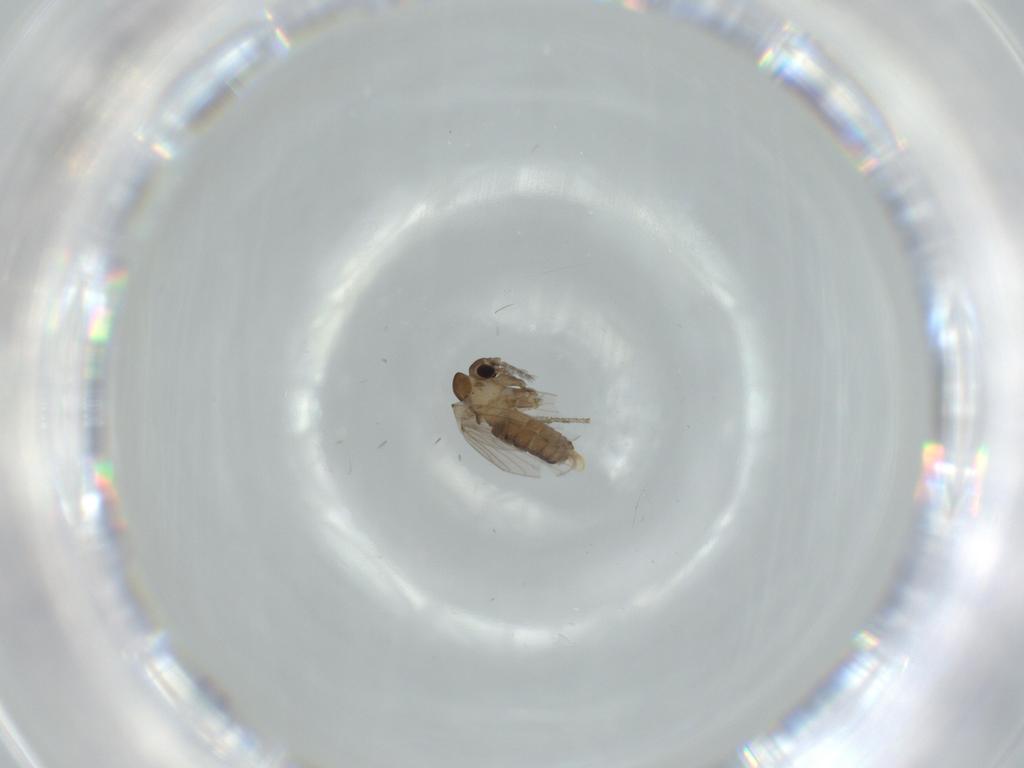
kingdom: Animalia
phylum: Arthropoda
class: Insecta
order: Diptera
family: Psychodidae
